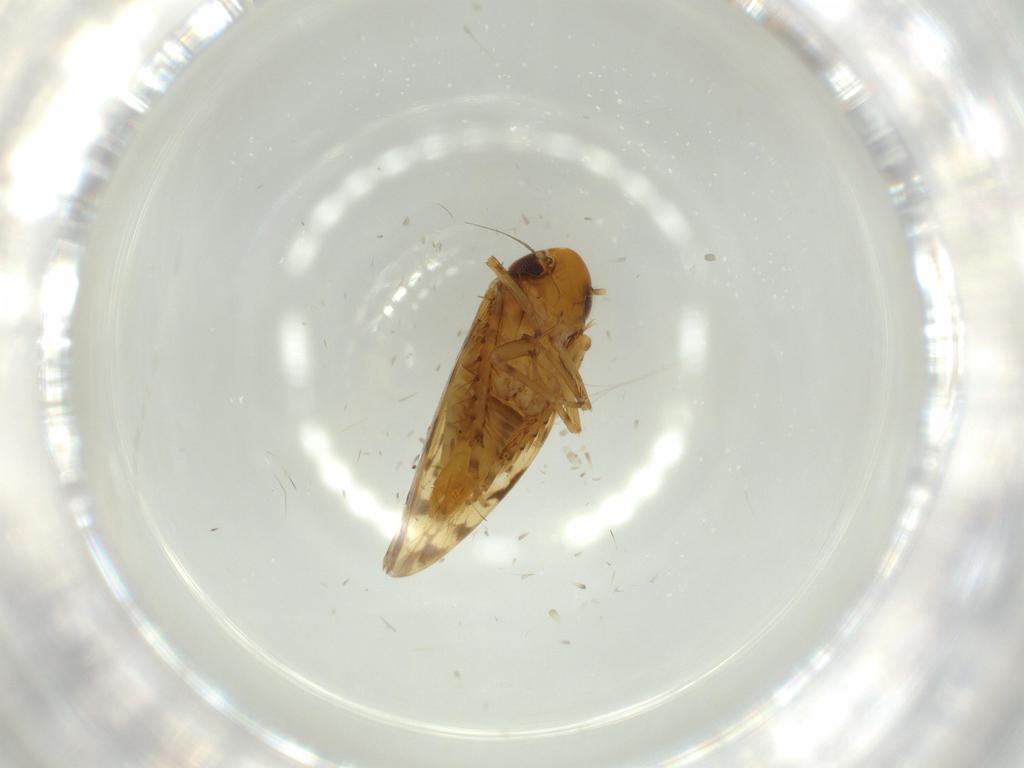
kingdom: Animalia
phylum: Arthropoda
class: Insecta
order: Hemiptera
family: Cicadellidae
